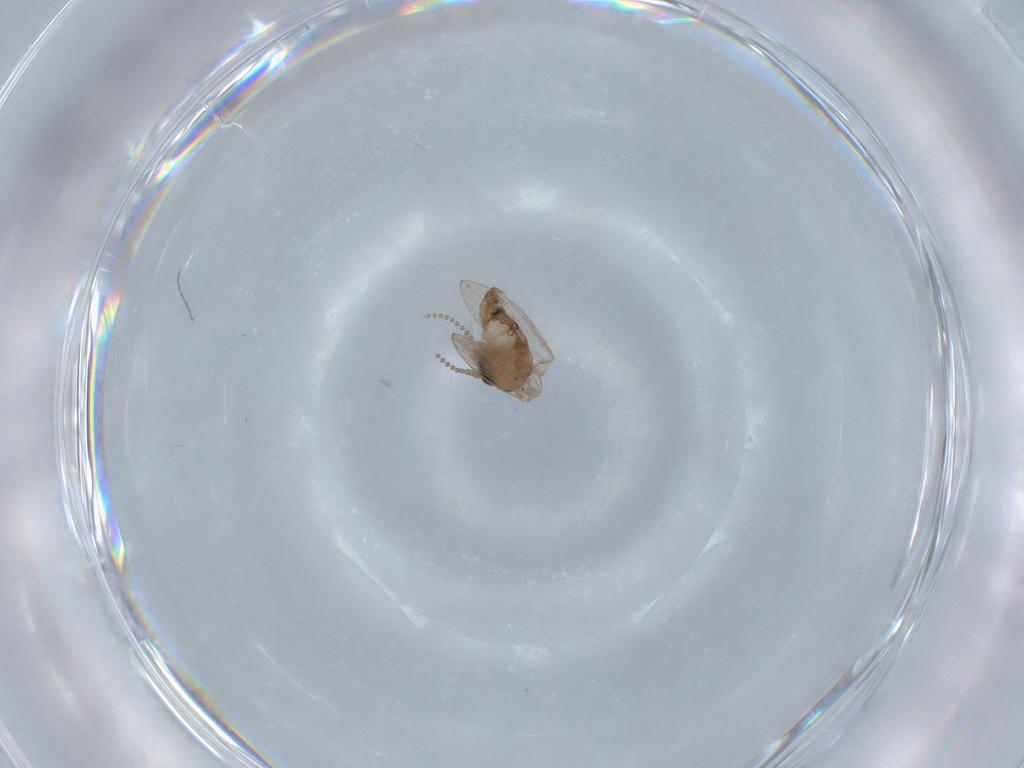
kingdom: Animalia
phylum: Arthropoda
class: Insecta
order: Diptera
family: Psychodidae
